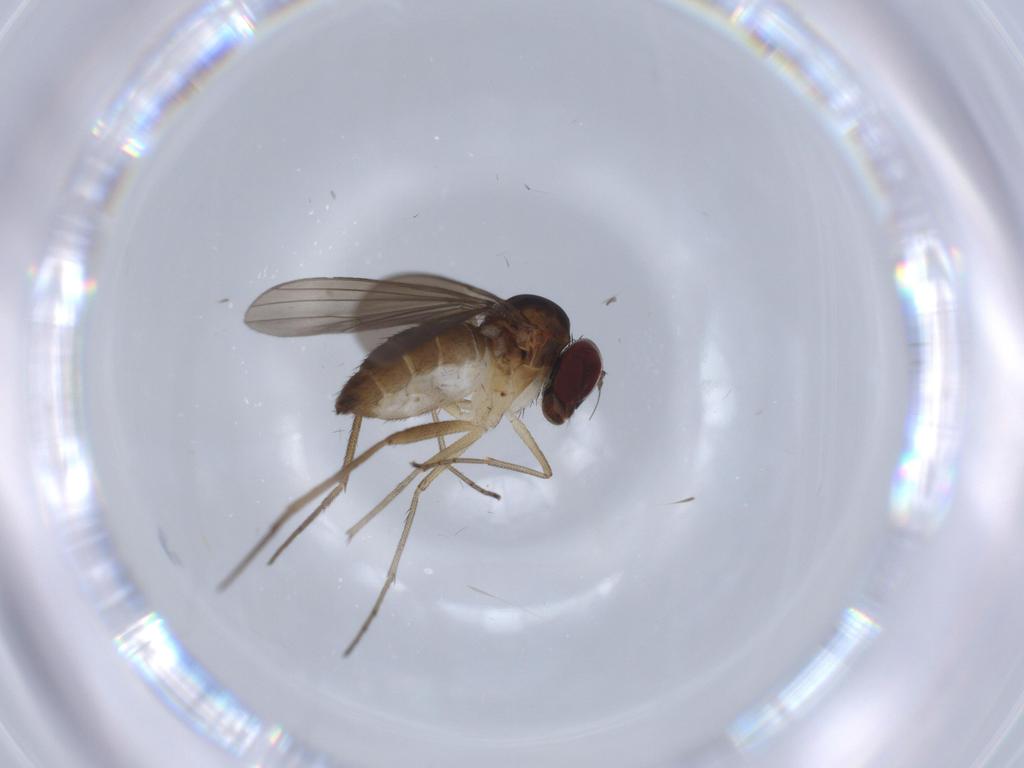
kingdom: Animalia
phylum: Arthropoda
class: Insecta
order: Diptera
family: Dolichopodidae
